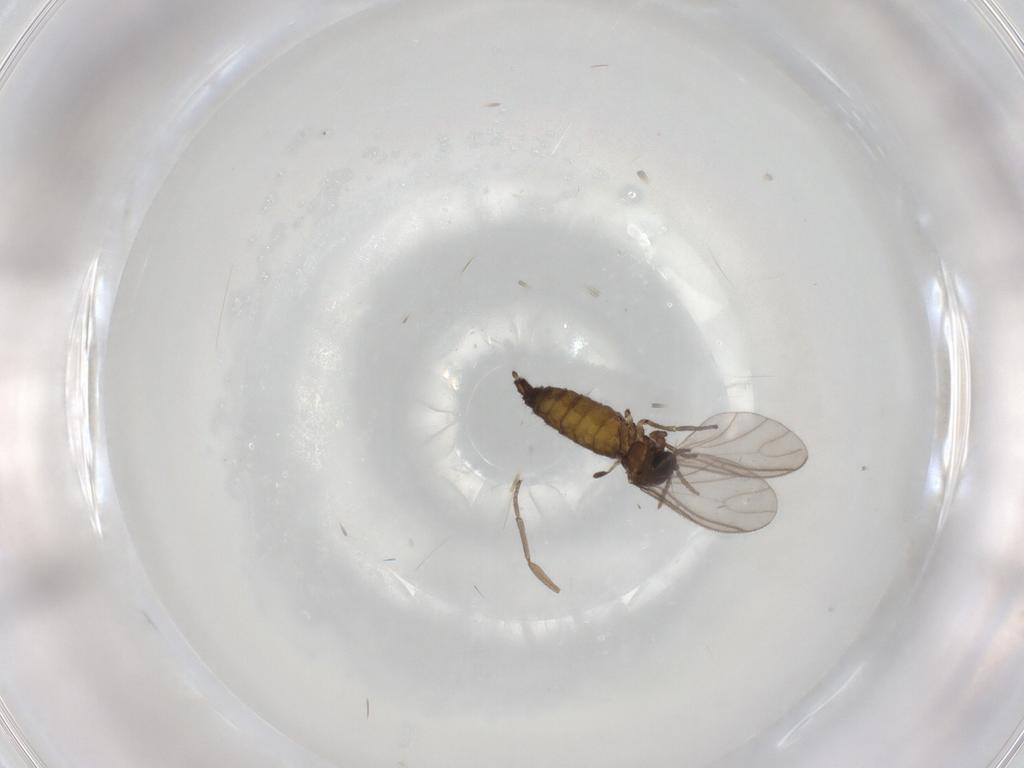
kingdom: Animalia
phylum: Arthropoda
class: Insecta
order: Diptera
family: Sciaridae
